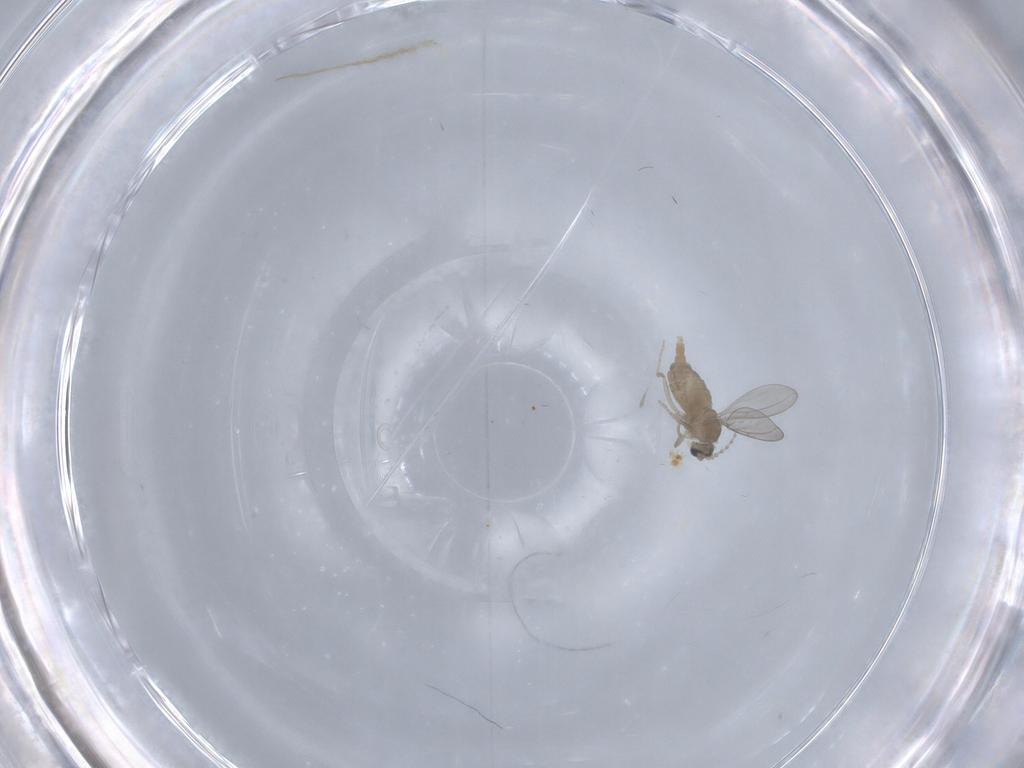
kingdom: Animalia
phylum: Arthropoda
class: Insecta
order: Diptera
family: Cecidomyiidae
